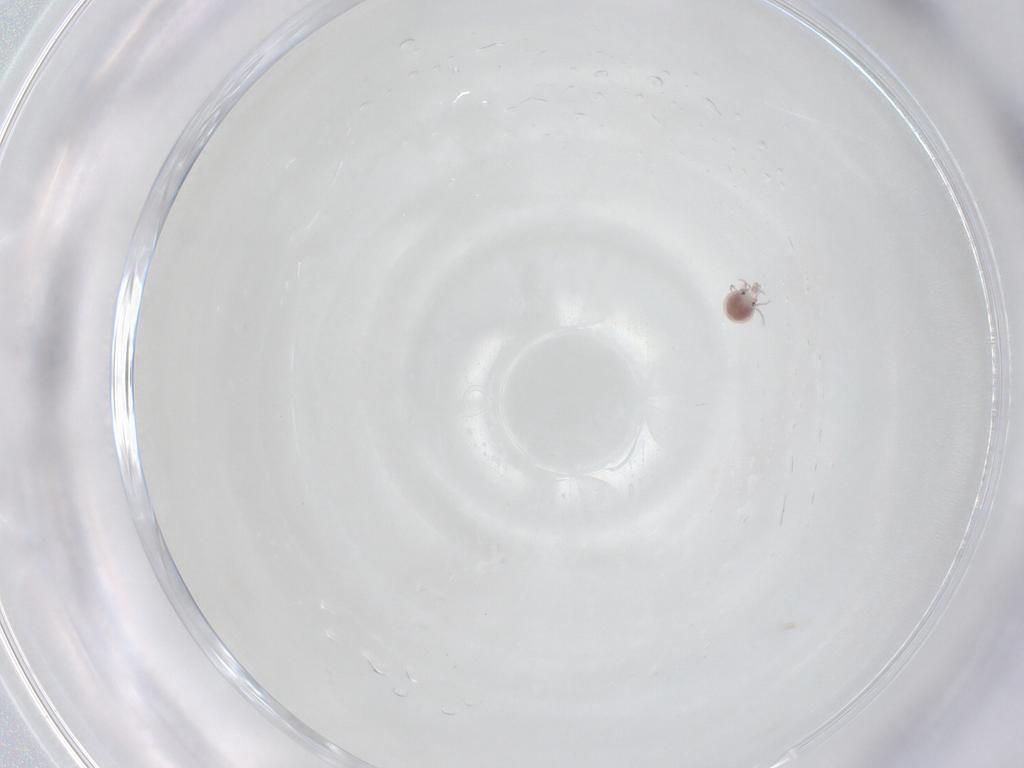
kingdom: Animalia
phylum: Arthropoda
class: Arachnida
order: Trombidiformes
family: Pionidae
